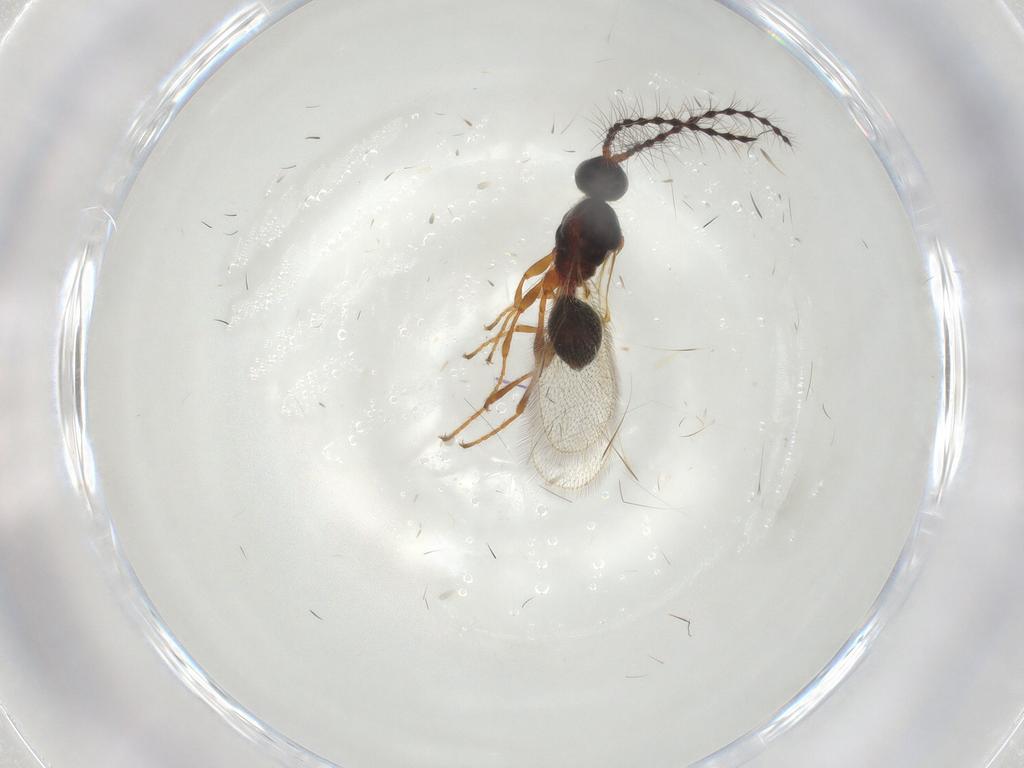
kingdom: Animalia
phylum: Arthropoda
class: Insecta
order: Hymenoptera
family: Diapriidae
